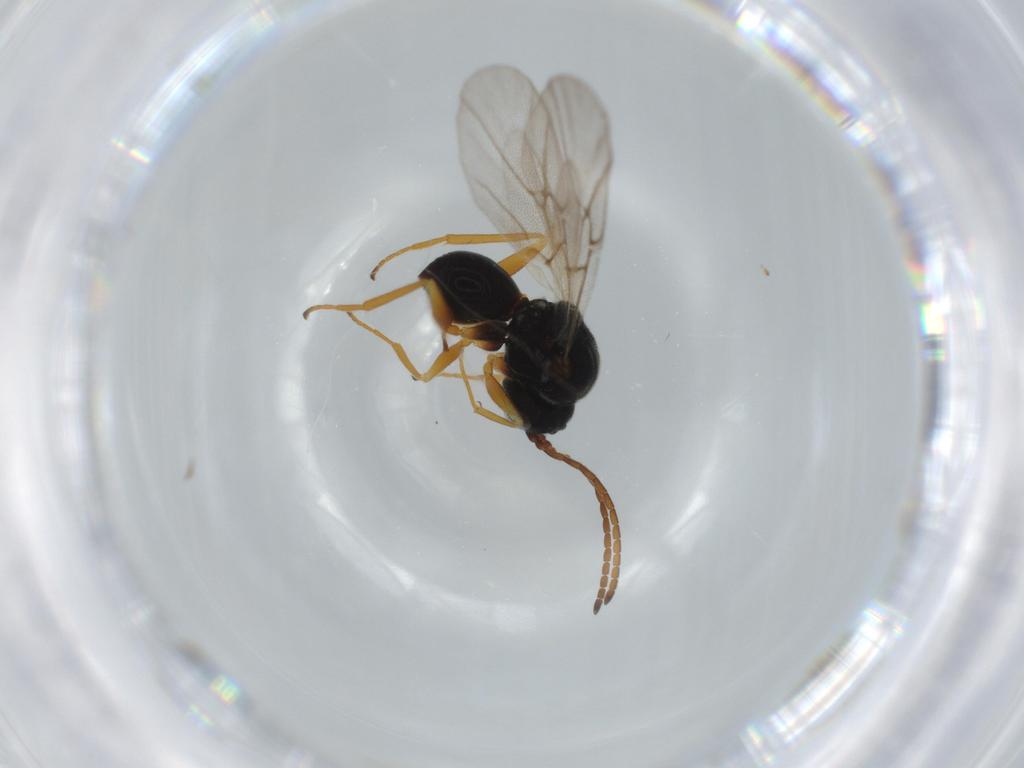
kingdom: Animalia
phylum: Arthropoda
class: Insecta
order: Hymenoptera
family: Cynipidae
